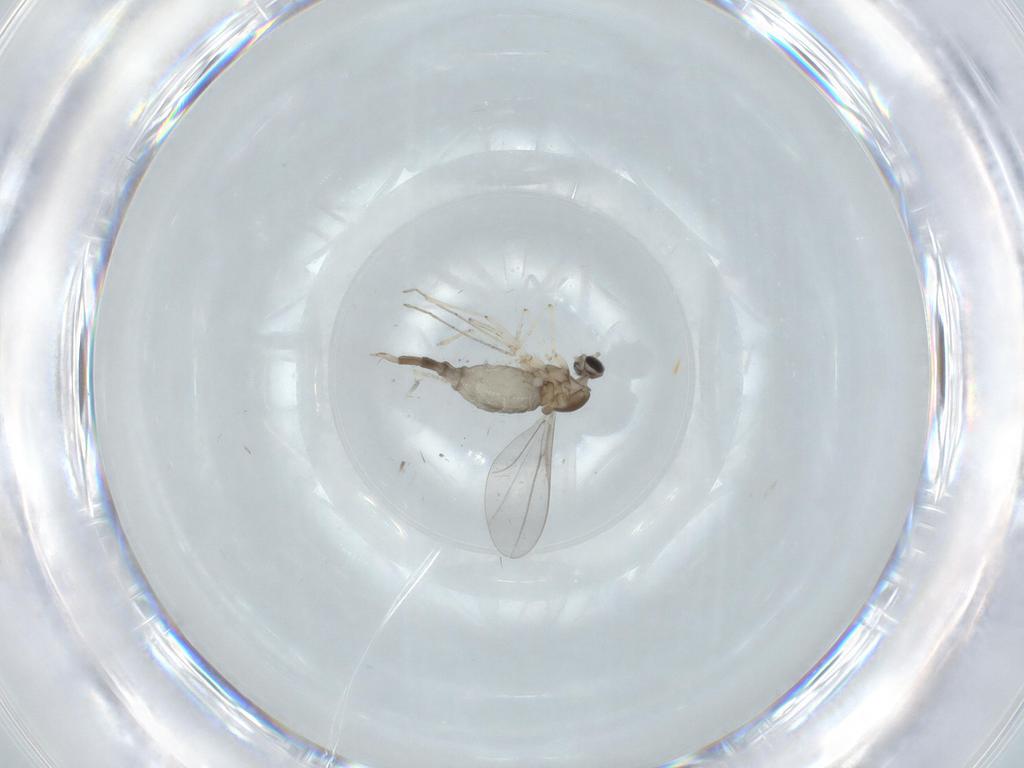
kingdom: Animalia
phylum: Arthropoda
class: Insecta
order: Diptera
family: Cecidomyiidae
